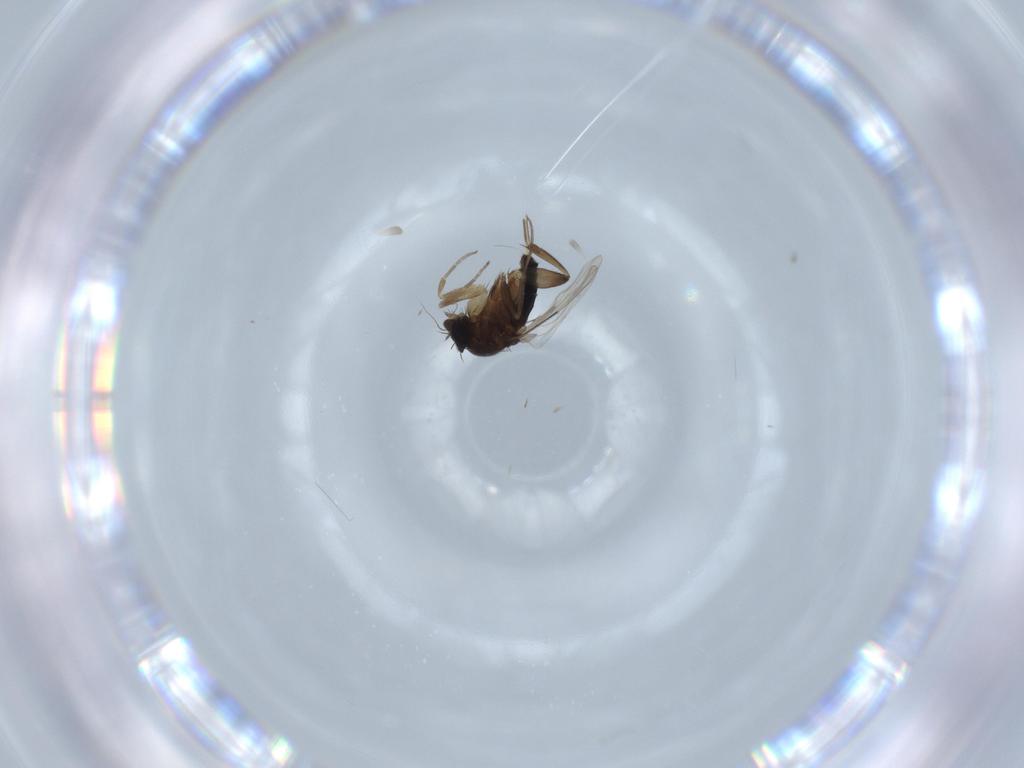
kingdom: Animalia
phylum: Arthropoda
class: Insecta
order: Diptera
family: Phoridae
